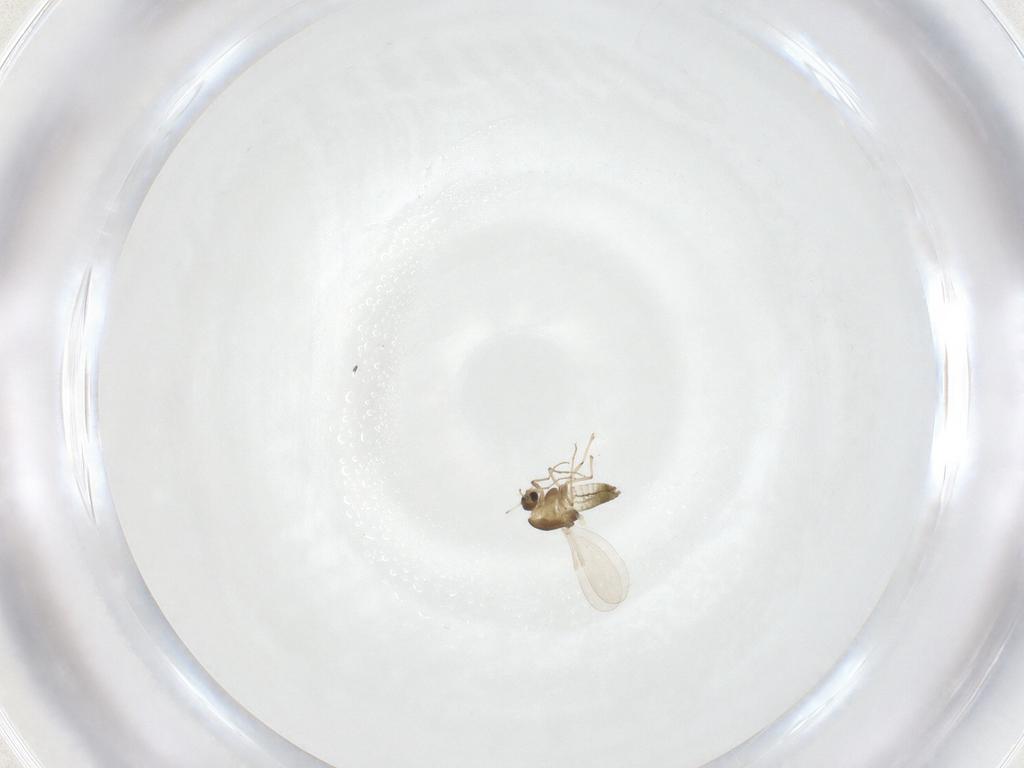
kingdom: Animalia
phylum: Arthropoda
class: Insecta
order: Diptera
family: Chironomidae
